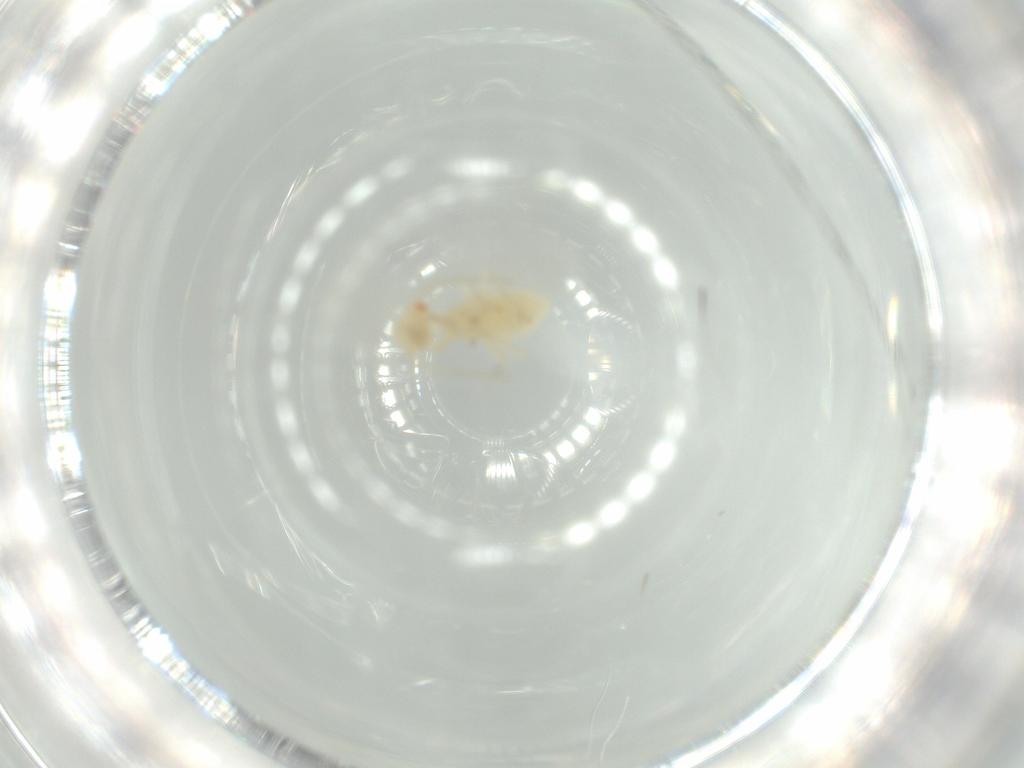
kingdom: Animalia
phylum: Arthropoda
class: Insecta
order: Psocodea
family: Caeciliusidae
